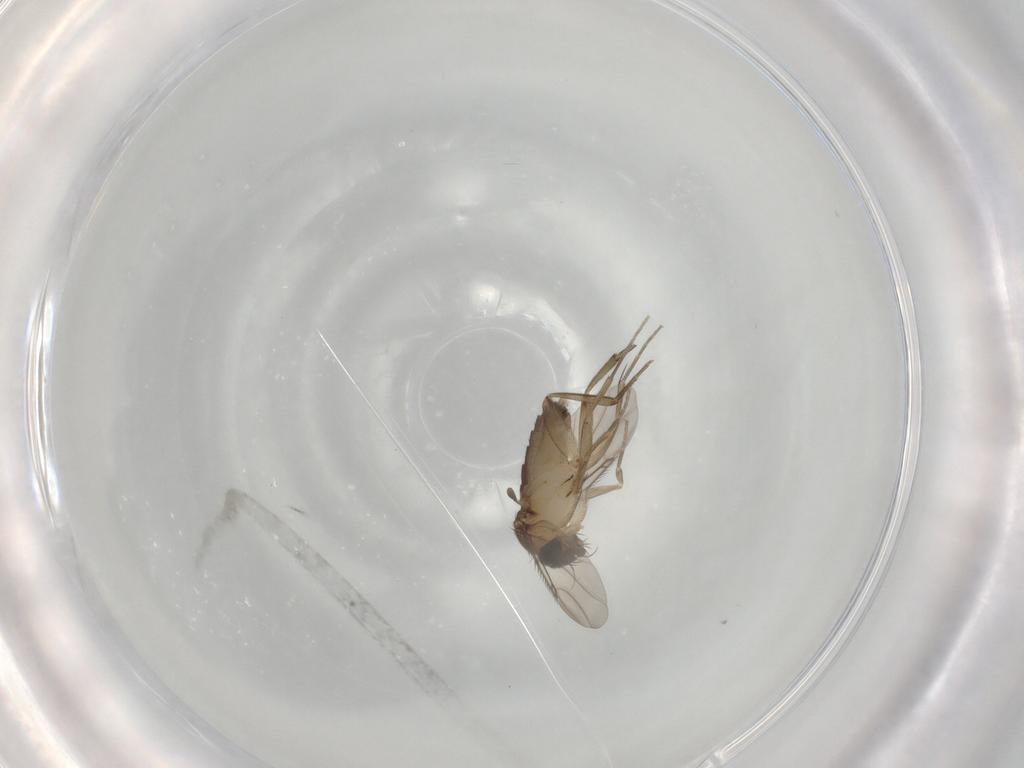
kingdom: Animalia
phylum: Arthropoda
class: Insecta
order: Diptera
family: Phoridae
